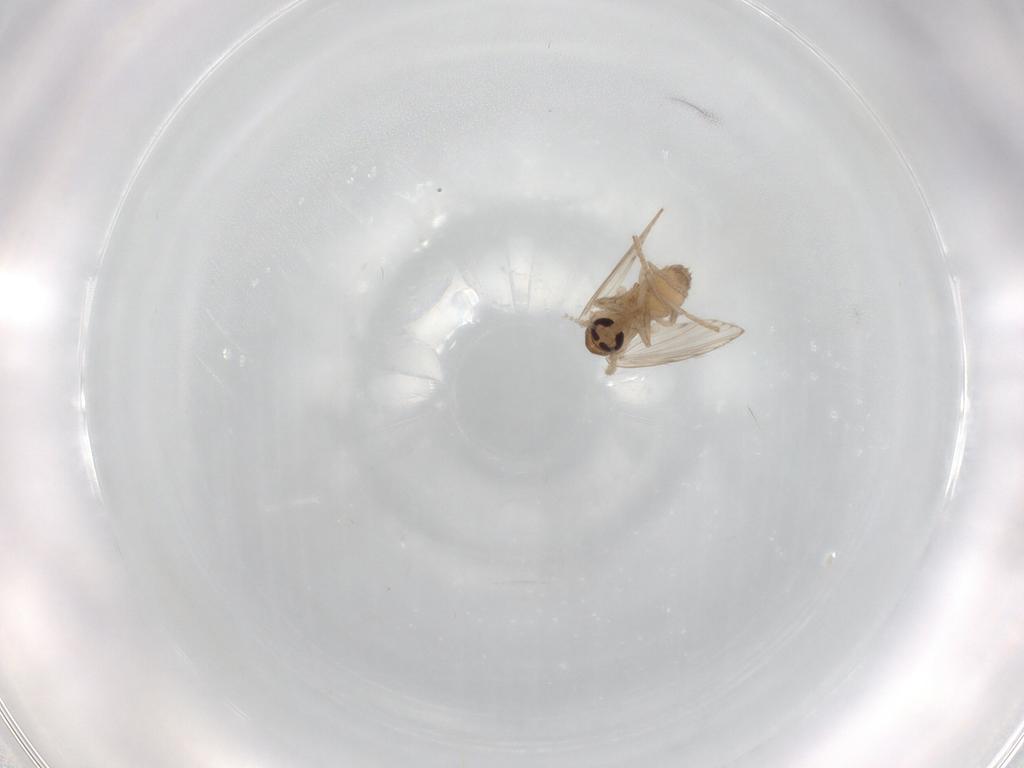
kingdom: Animalia
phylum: Arthropoda
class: Insecta
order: Diptera
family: Psychodidae
